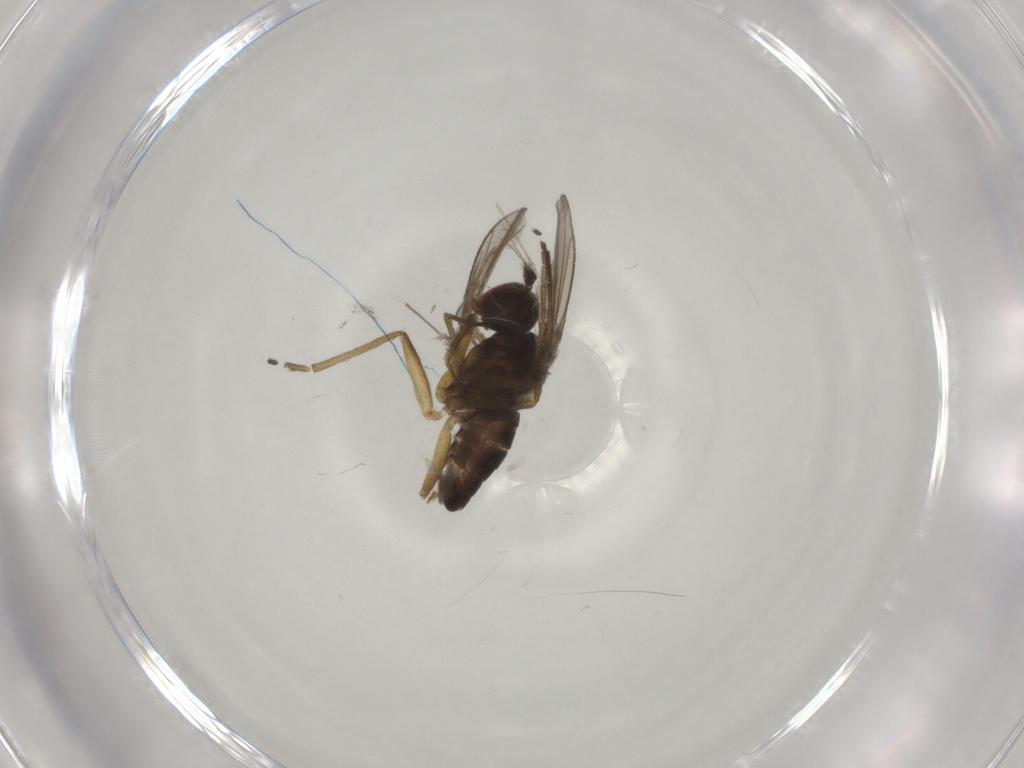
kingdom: Animalia
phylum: Arthropoda
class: Insecta
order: Diptera
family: Dolichopodidae
